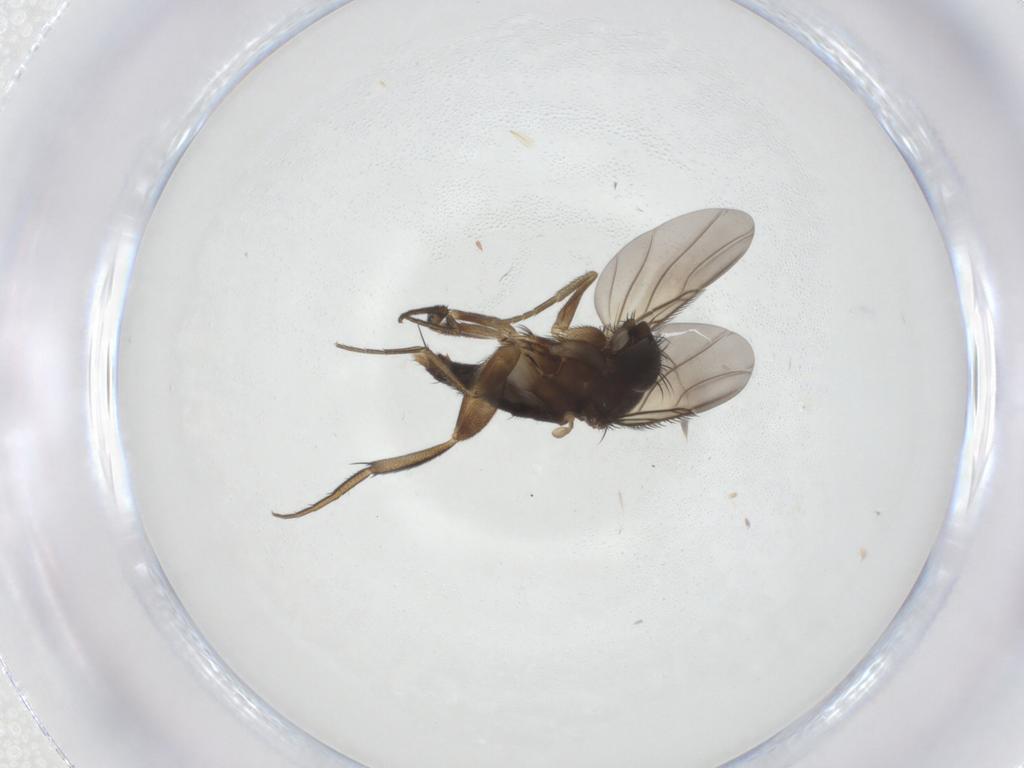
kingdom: Animalia
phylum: Arthropoda
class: Insecta
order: Diptera
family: Phoridae
